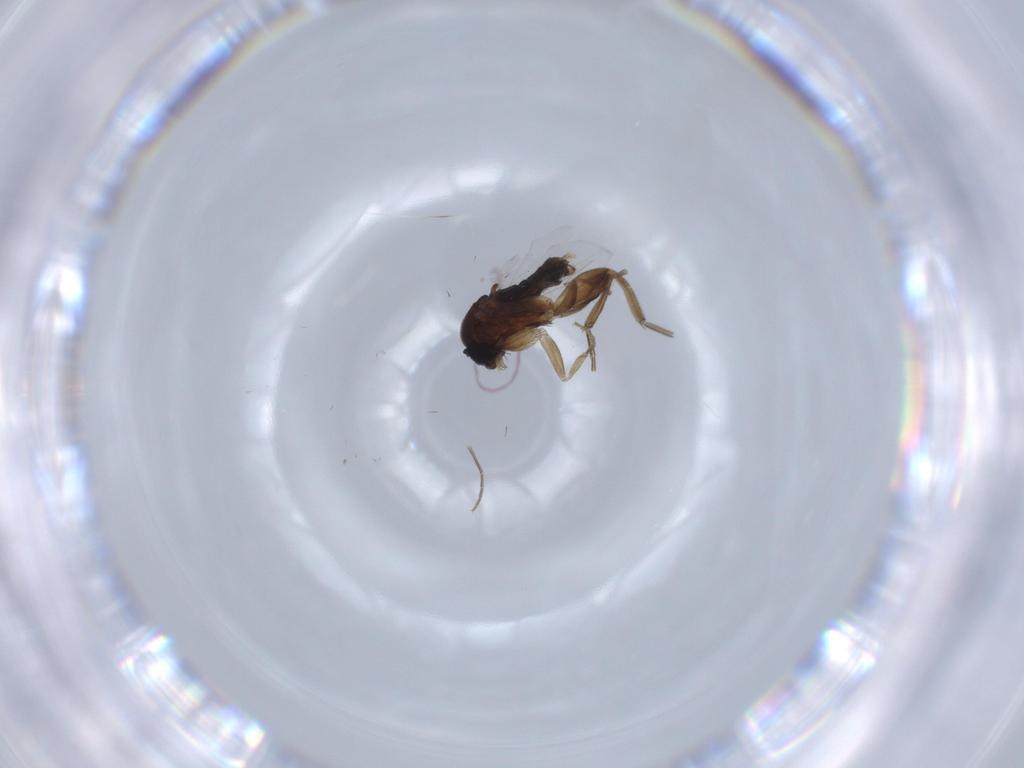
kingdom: Animalia
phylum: Arthropoda
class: Insecta
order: Diptera
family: Phoridae
